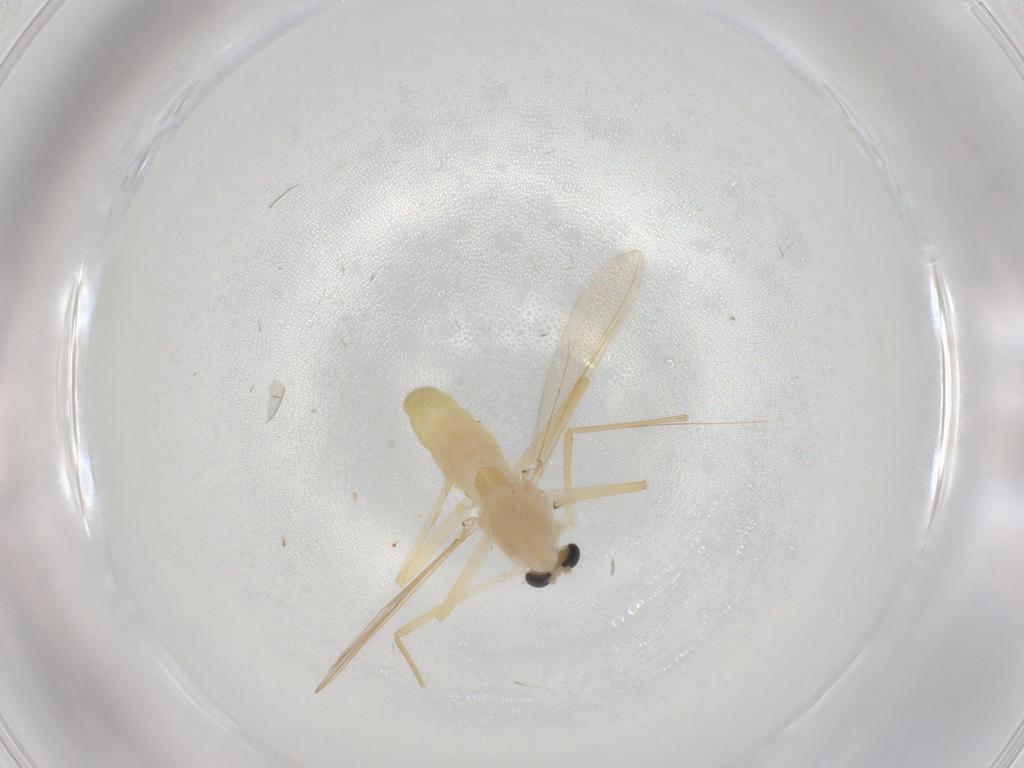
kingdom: Animalia
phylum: Arthropoda
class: Insecta
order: Diptera
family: Chironomidae
